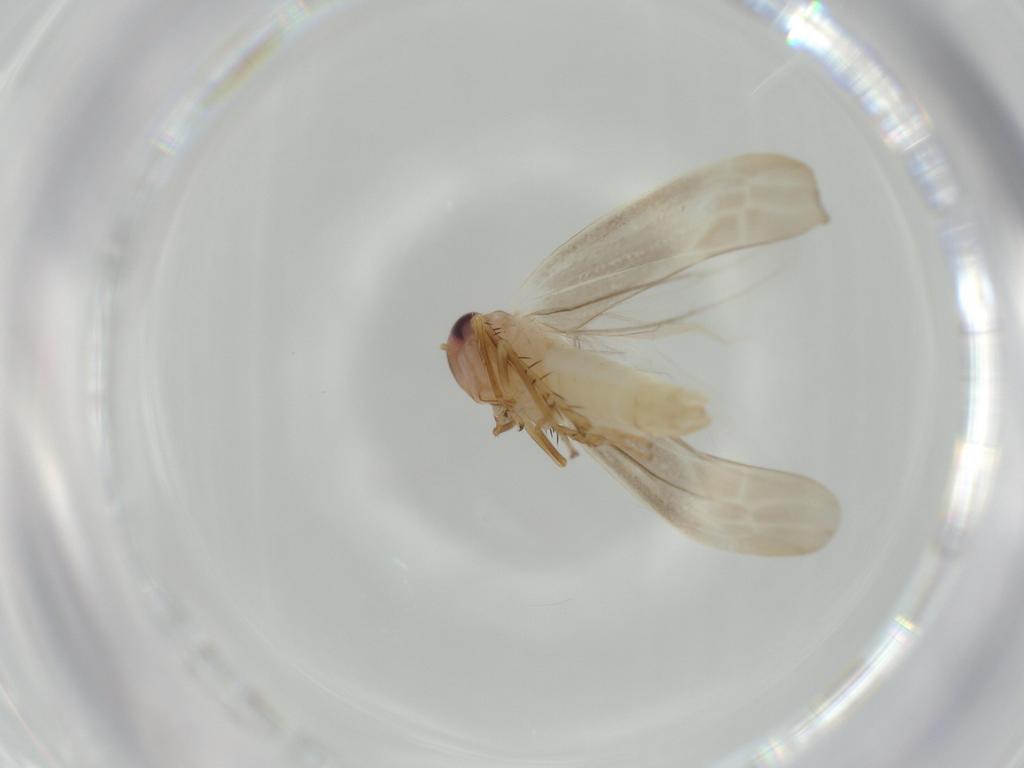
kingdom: Animalia
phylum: Arthropoda
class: Insecta
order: Hemiptera
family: Cicadellidae
